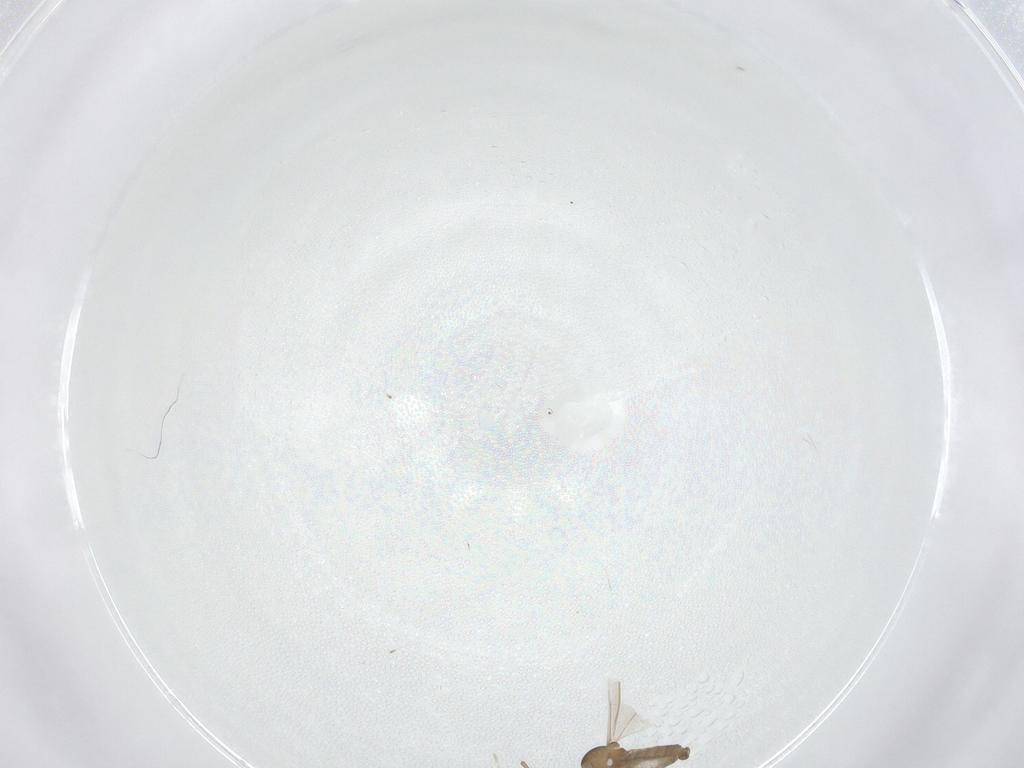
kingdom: Animalia
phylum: Arthropoda
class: Insecta
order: Diptera
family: Cecidomyiidae
